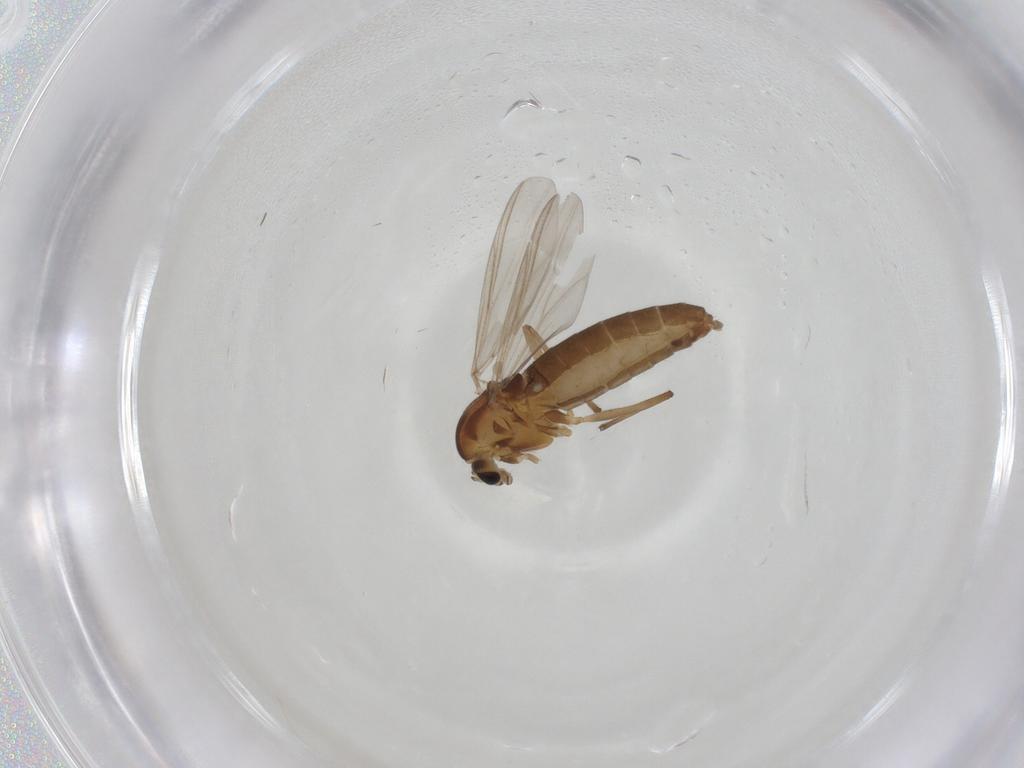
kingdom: Animalia
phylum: Arthropoda
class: Insecta
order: Diptera
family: Chironomidae
